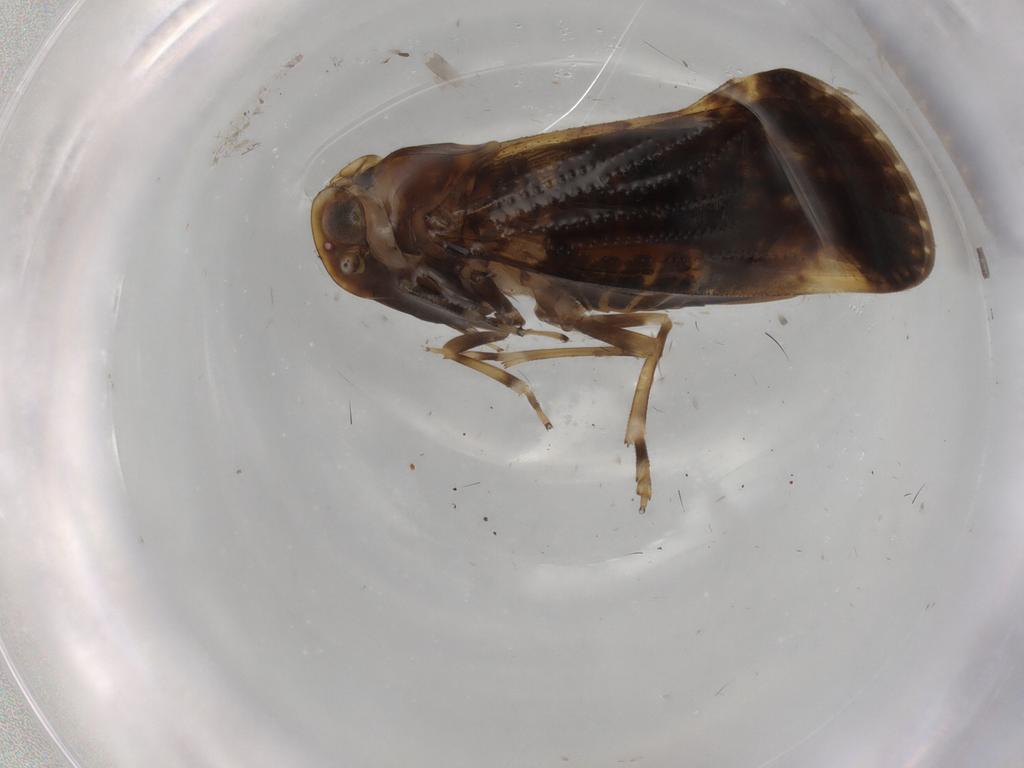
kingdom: Animalia
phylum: Arthropoda
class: Insecta
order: Hemiptera
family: Cixiidae
